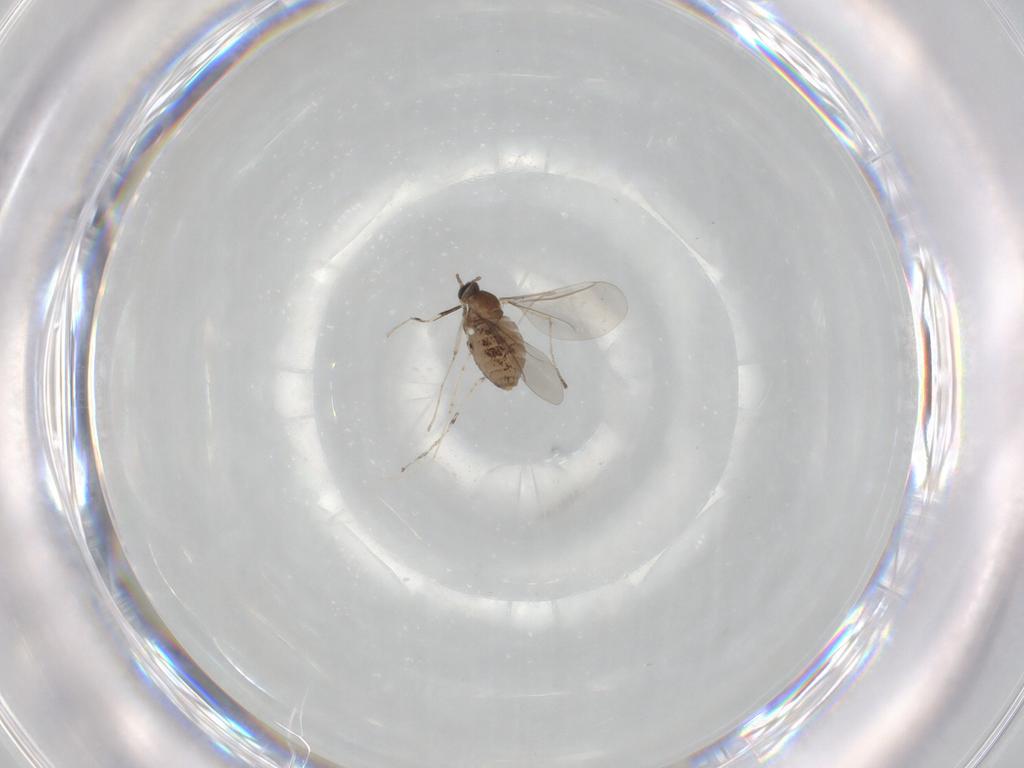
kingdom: Animalia
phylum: Arthropoda
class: Insecta
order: Diptera
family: Cecidomyiidae
